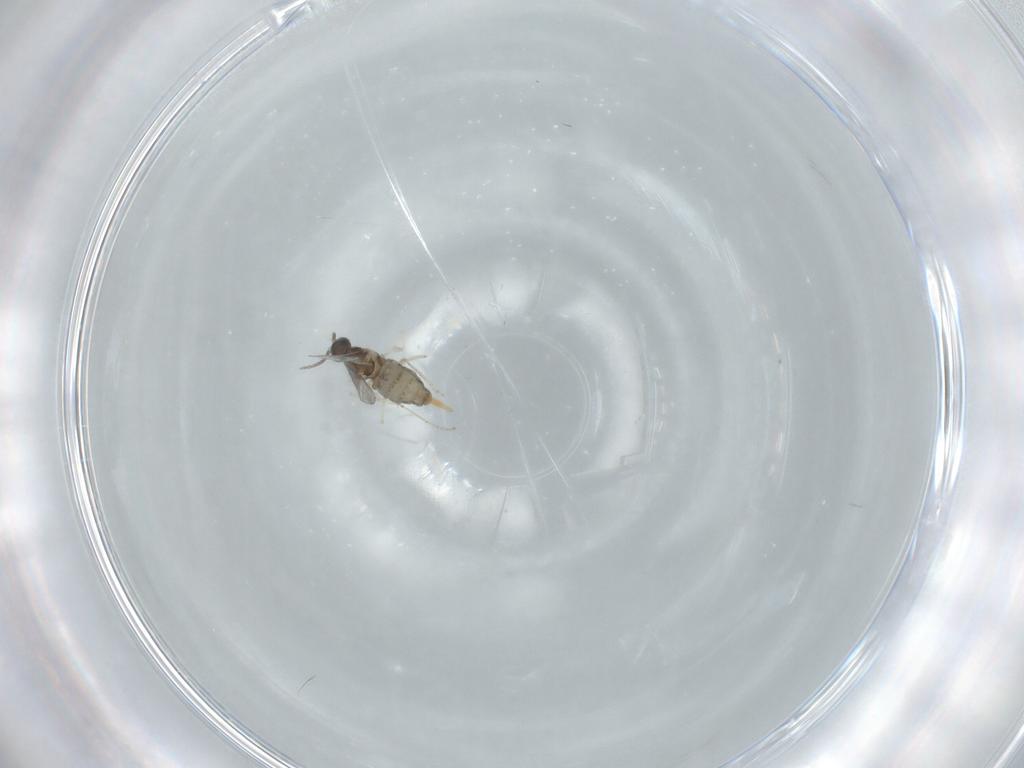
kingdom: Animalia
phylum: Arthropoda
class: Insecta
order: Diptera
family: Cecidomyiidae
